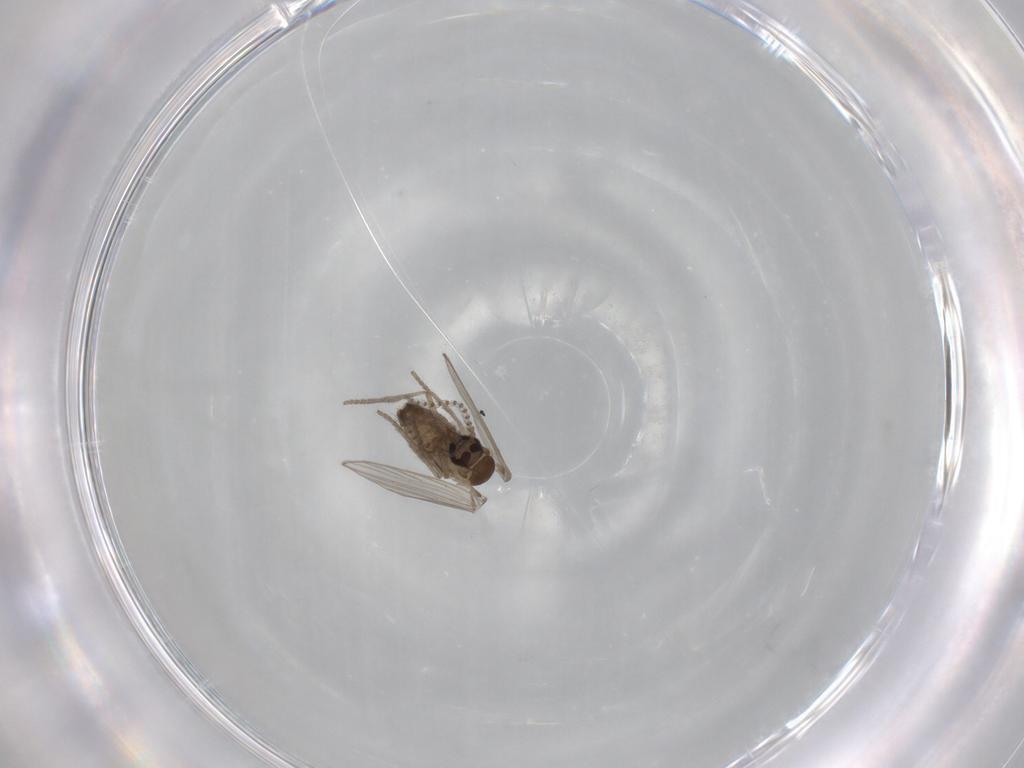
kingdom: Animalia
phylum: Arthropoda
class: Insecta
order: Diptera
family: Psychodidae
